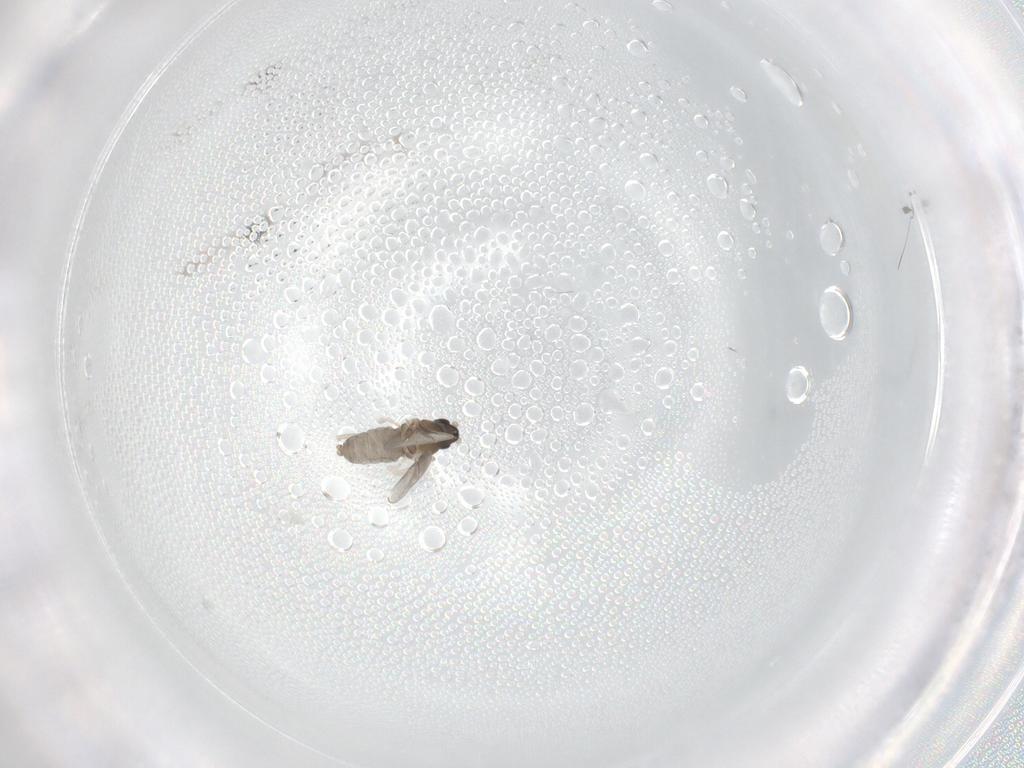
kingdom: Animalia
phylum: Arthropoda
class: Insecta
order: Diptera
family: Cecidomyiidae
